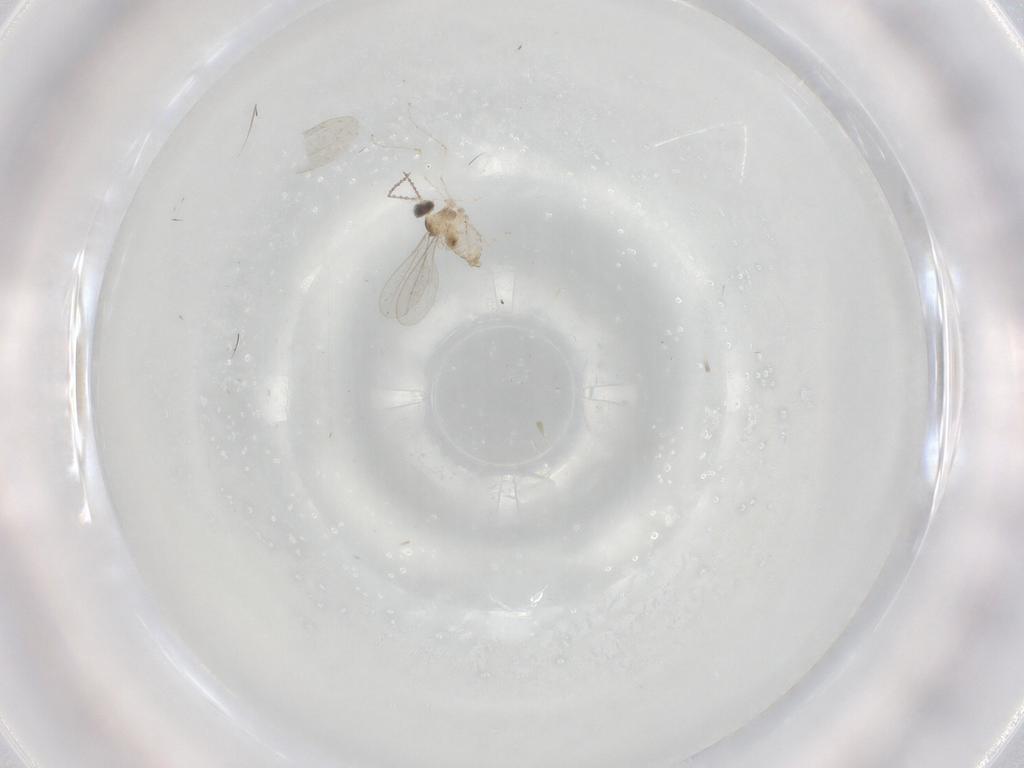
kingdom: Animalia
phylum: Arthropoda
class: Insecta
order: Diptera
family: Cecidomyiidae
